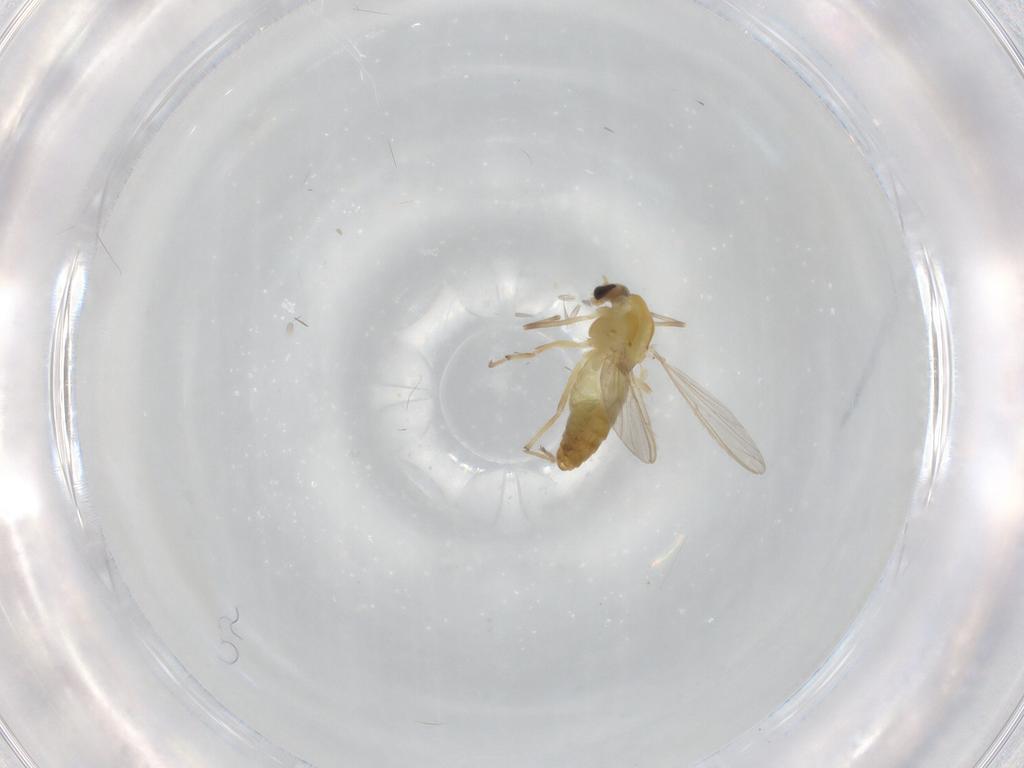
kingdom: Animalia
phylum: Arthropoda
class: Insecta
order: Diptera
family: Chironomidae
